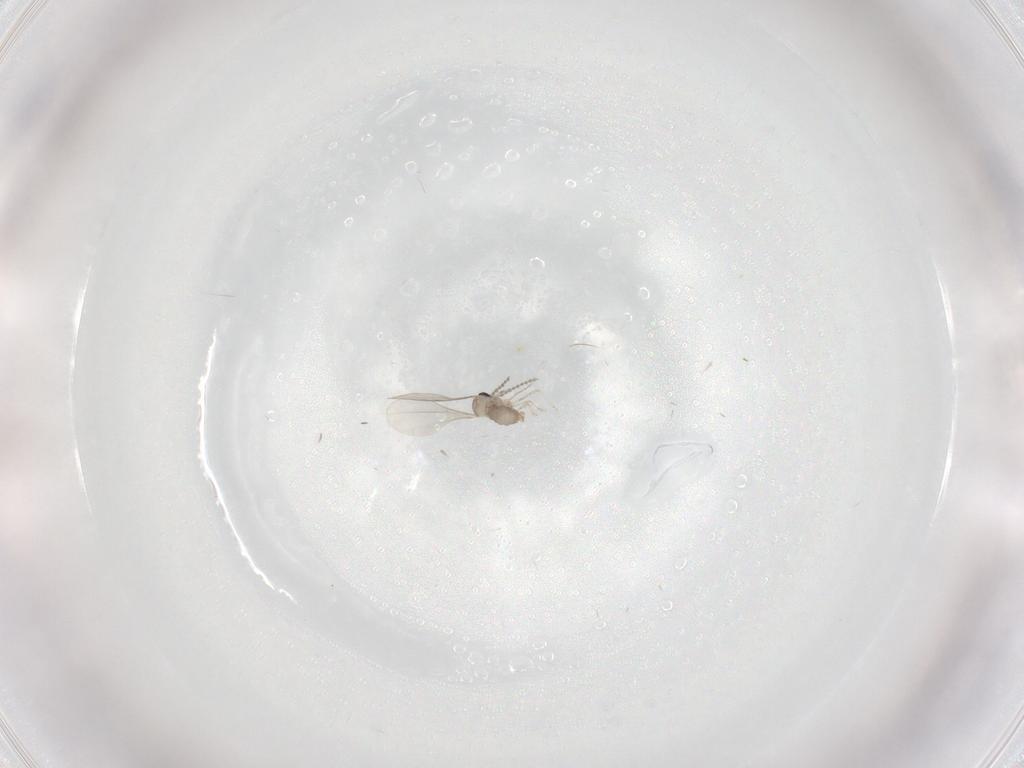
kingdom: Animalia
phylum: Arthropoda
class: Insecta
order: Diptera
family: Cecidomyiidae
